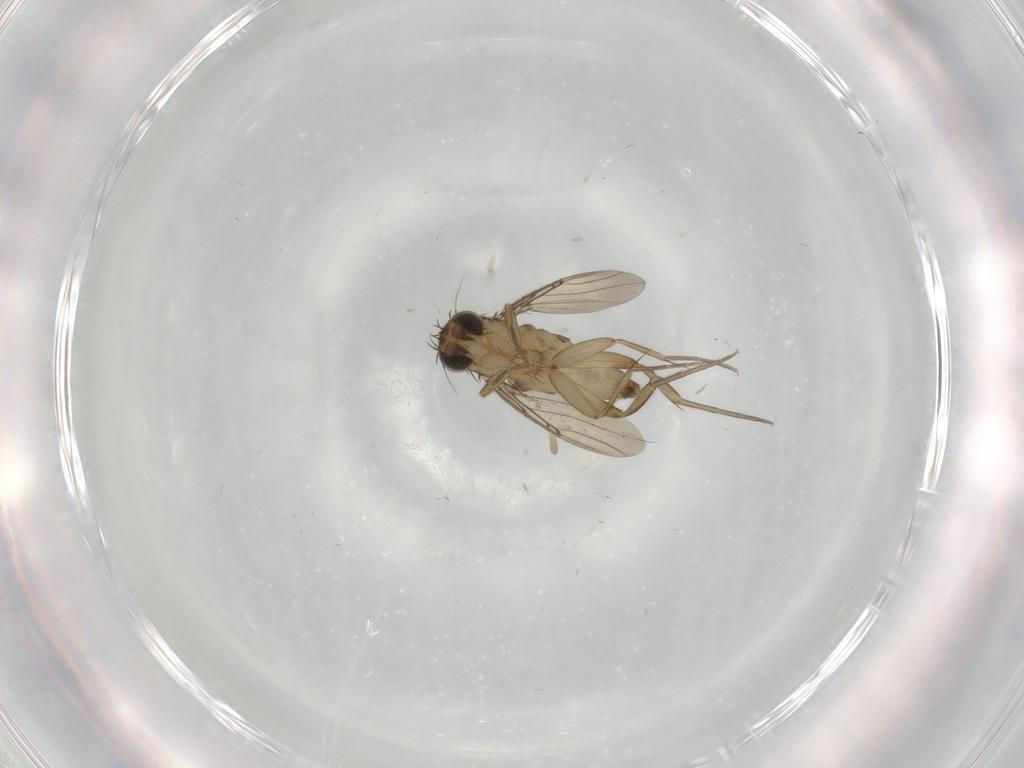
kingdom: Animalia
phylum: Arthropoda
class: Insecta
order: Diptera
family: Phoridae
